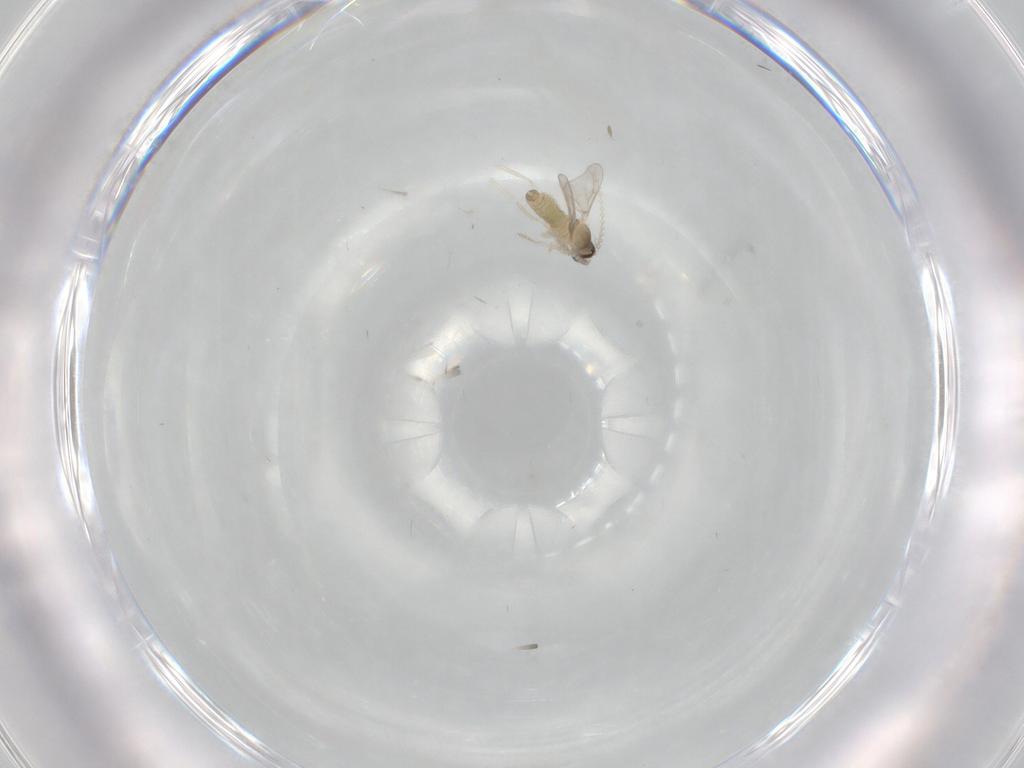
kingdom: Animalia
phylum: Arthropoda
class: Insecta
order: Diptera
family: Cecidomyiidae
